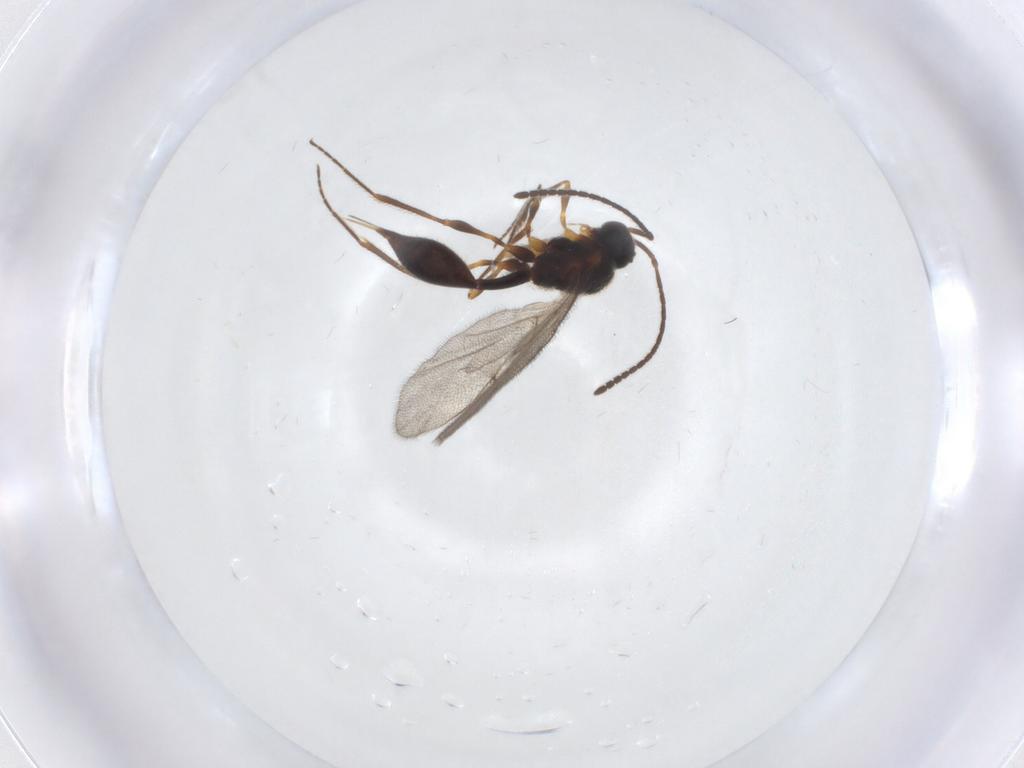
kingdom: Animalia
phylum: Arthropoda
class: Insecta
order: Hymenoptera
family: Diapriidae
